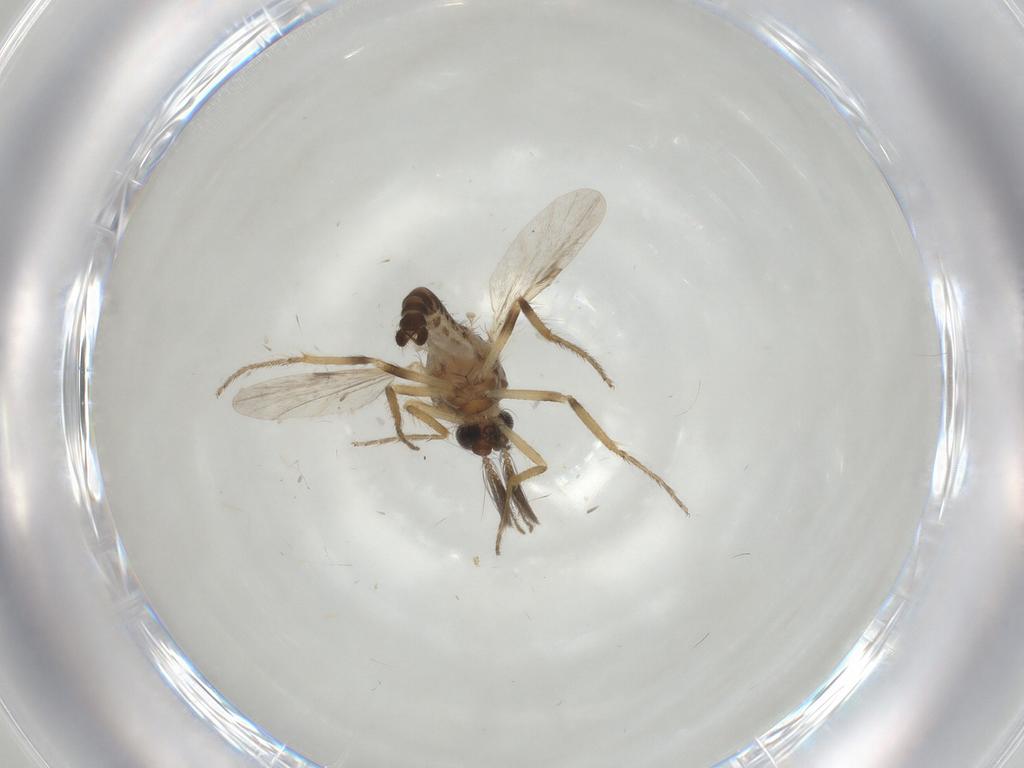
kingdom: Animalia
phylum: Arthropoda
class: Insecta
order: Diptera
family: Ceratopogonidae
